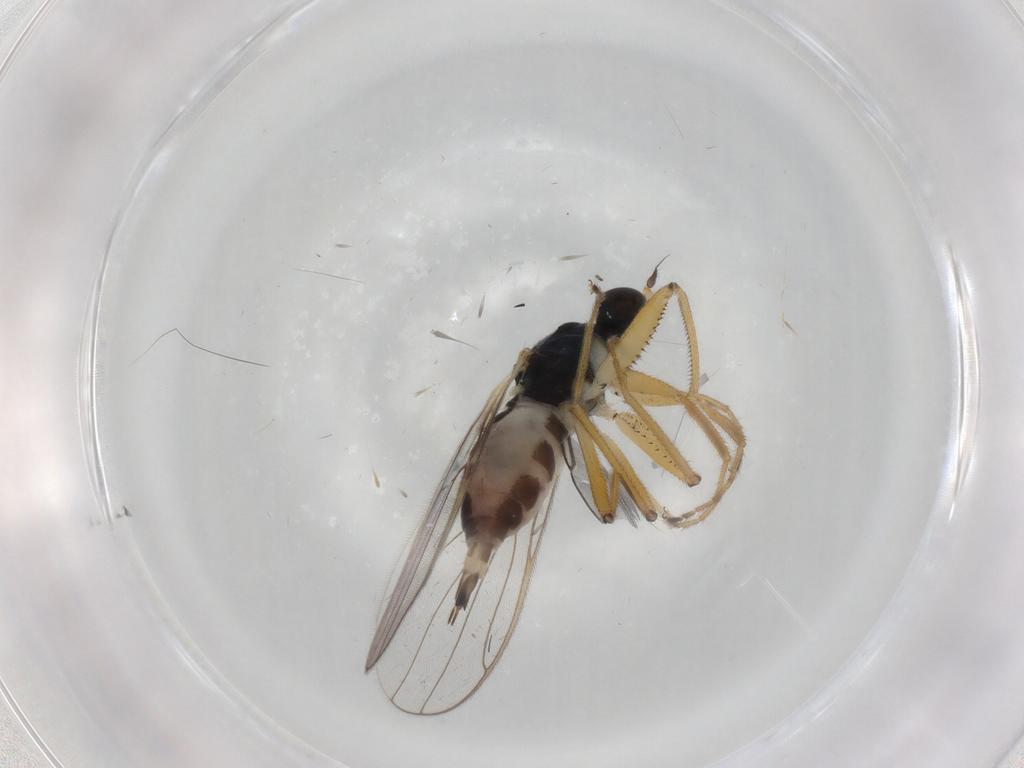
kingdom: Animalia
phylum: Arthropoda
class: Insecta
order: Diptera
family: Hybotidae
